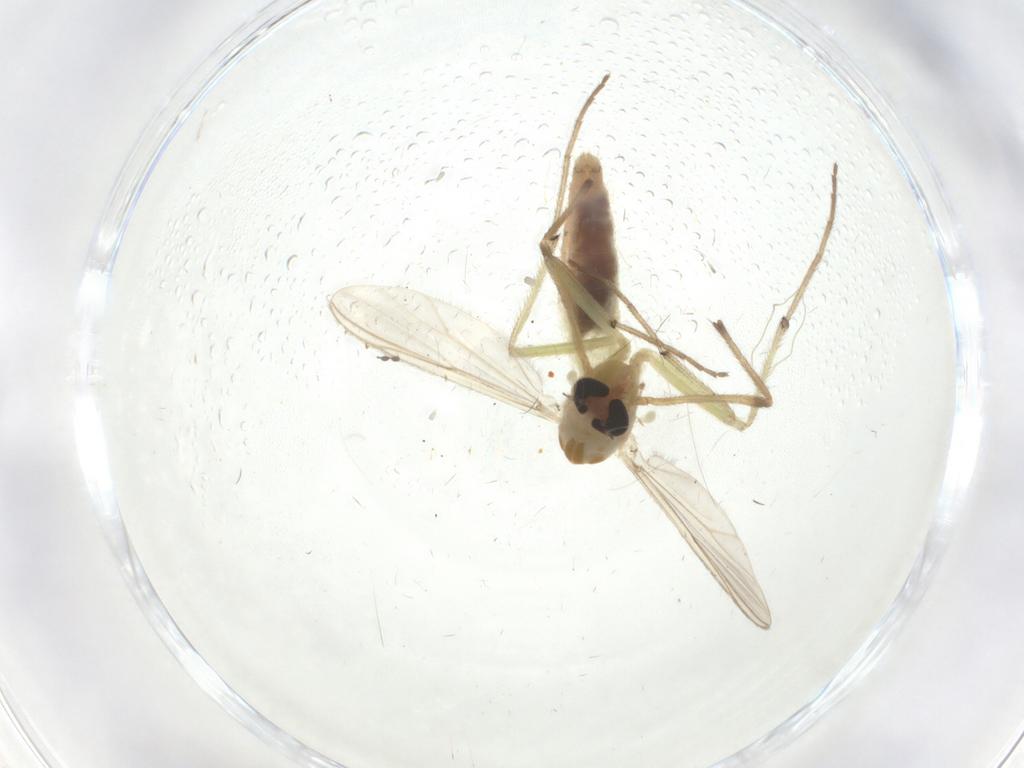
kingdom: Animalia
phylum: Arthropoda
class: Insecta
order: Diptera
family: Chironomidae
